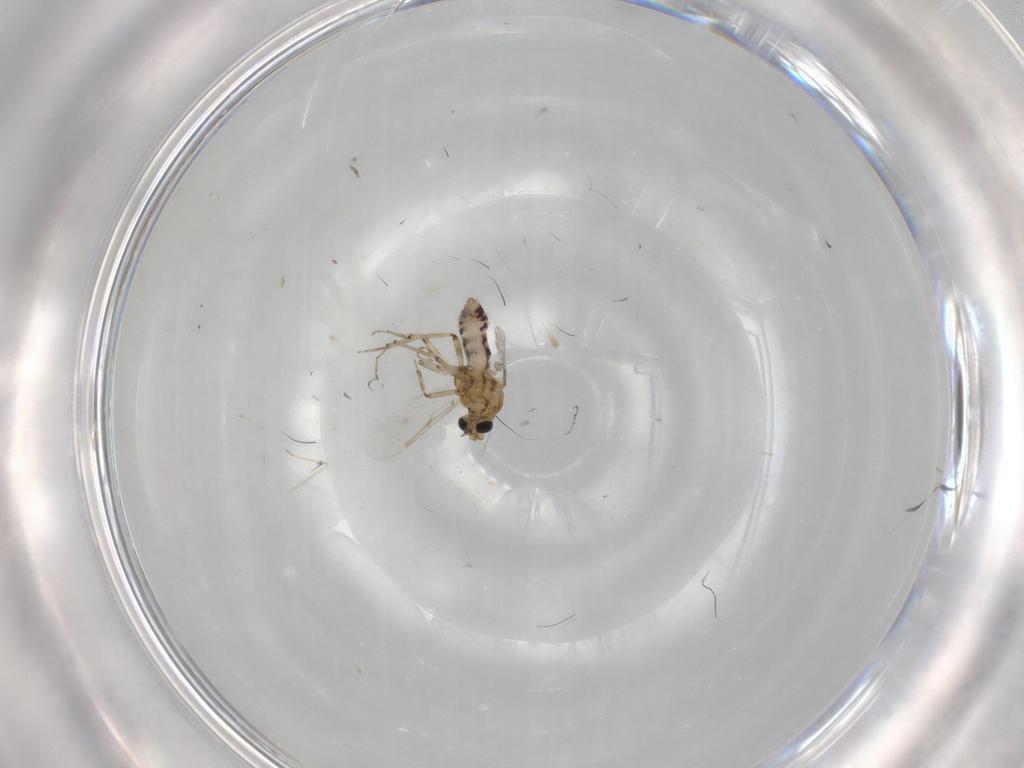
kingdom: Animalia
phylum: Arthropoda
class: Insecta
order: Diptera
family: Ceratopogonidae
